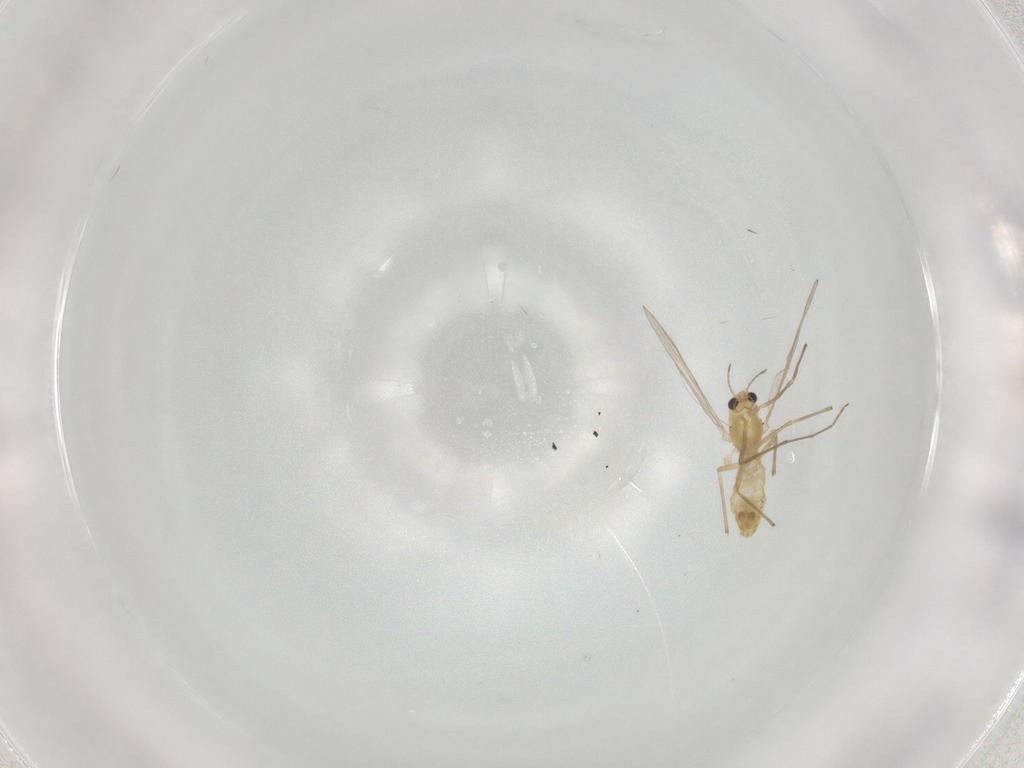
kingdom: Animalia
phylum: Arthropoda
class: Insecta
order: Diptera
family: Chironomidae
